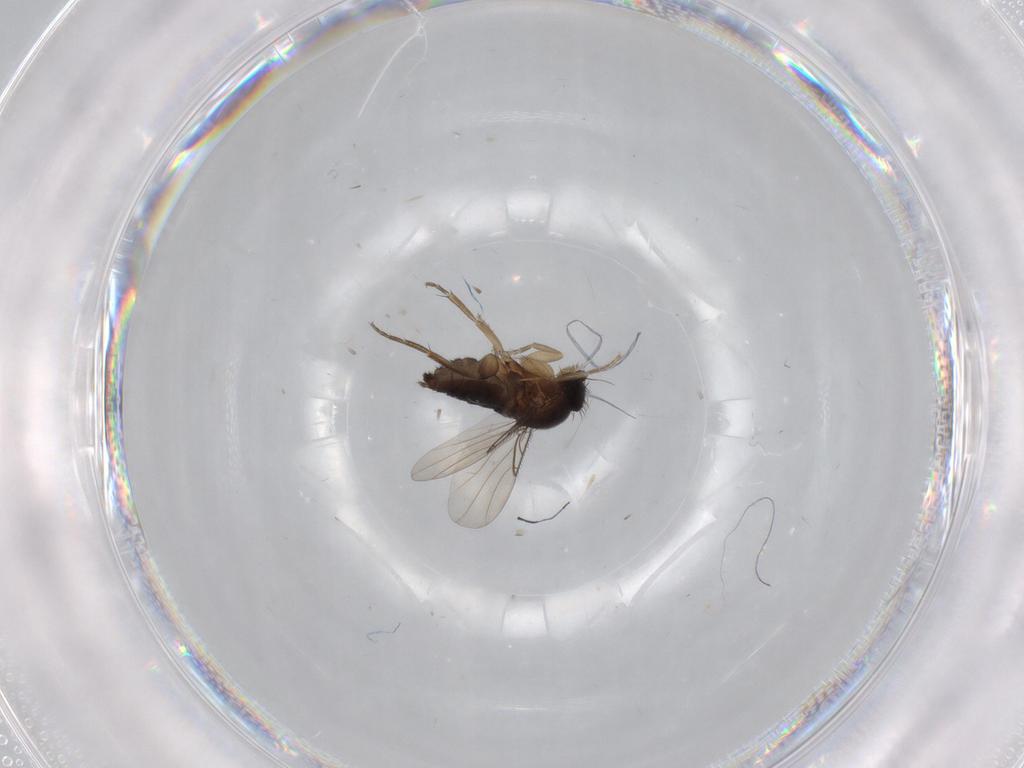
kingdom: Animalia
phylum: Arthropoda
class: Insecta
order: Diptera
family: Phoridae
